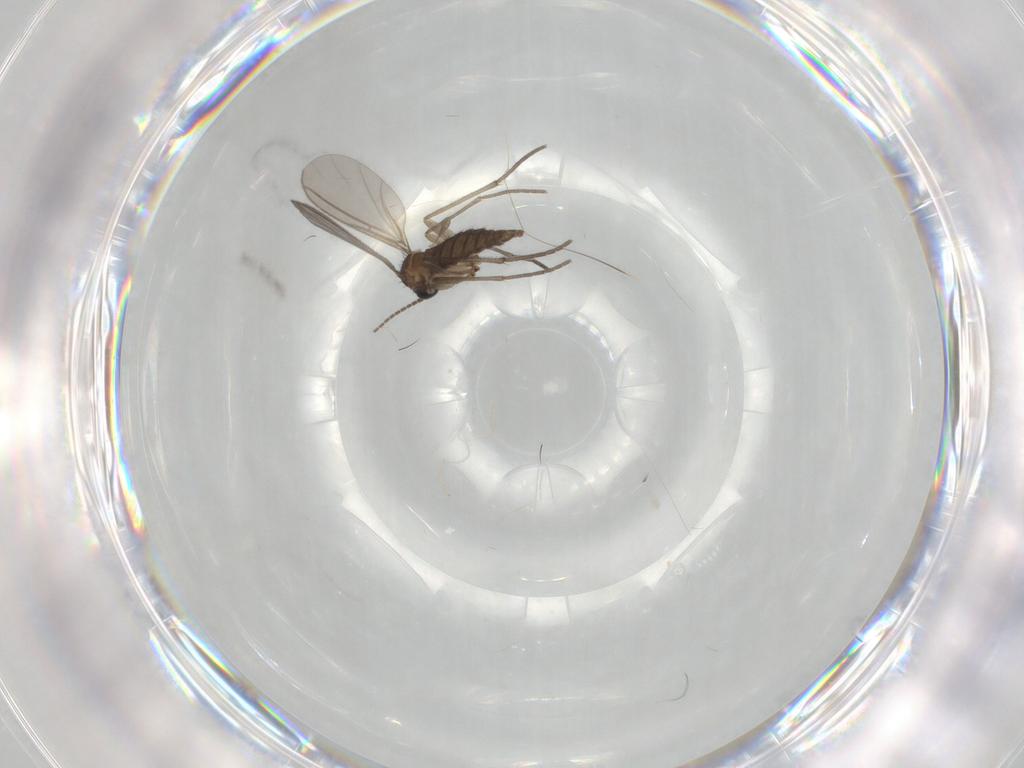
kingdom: Animalia
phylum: Arthropoda
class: Insecta
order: Diptera
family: Sciaridae
